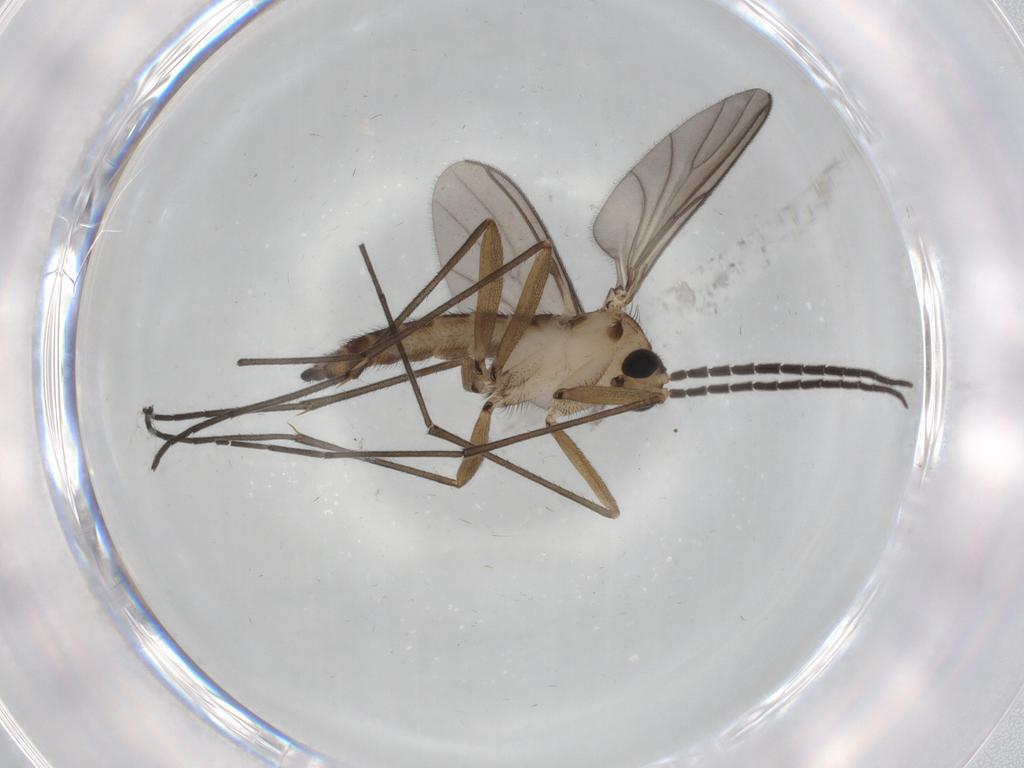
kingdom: Animalia
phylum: Arthropoda
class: Insecta
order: Diptera
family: Sciaridae
